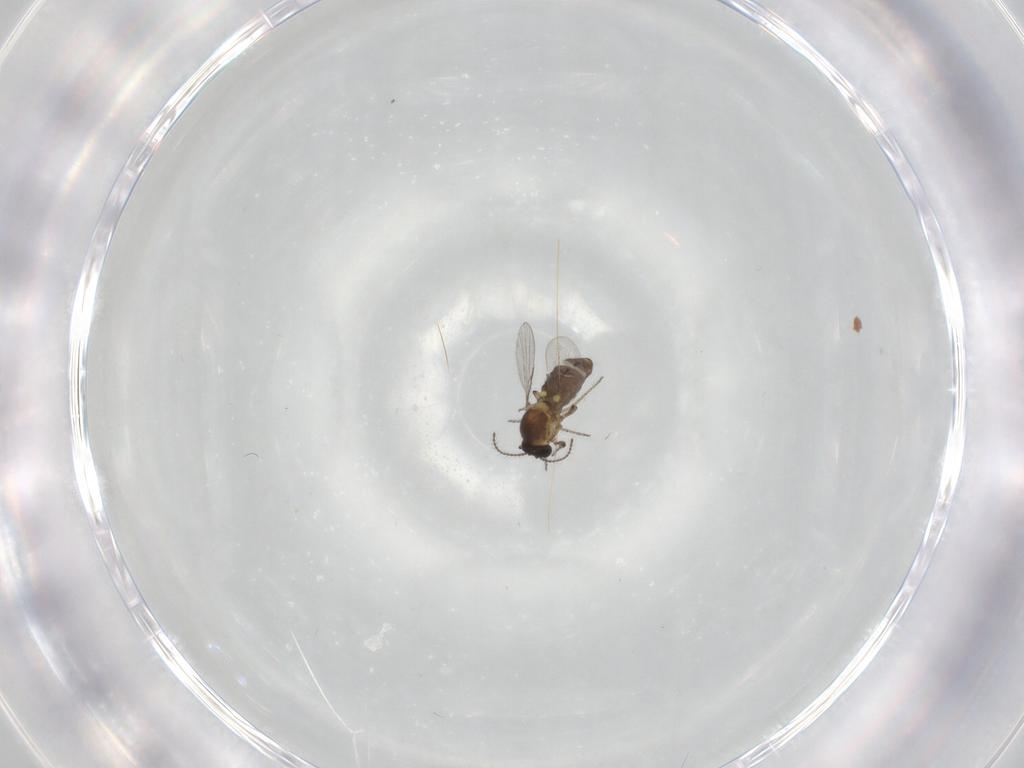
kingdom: Animalia
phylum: Arthropoda
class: Insecta
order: Diptera
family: Ceratopogonidae
